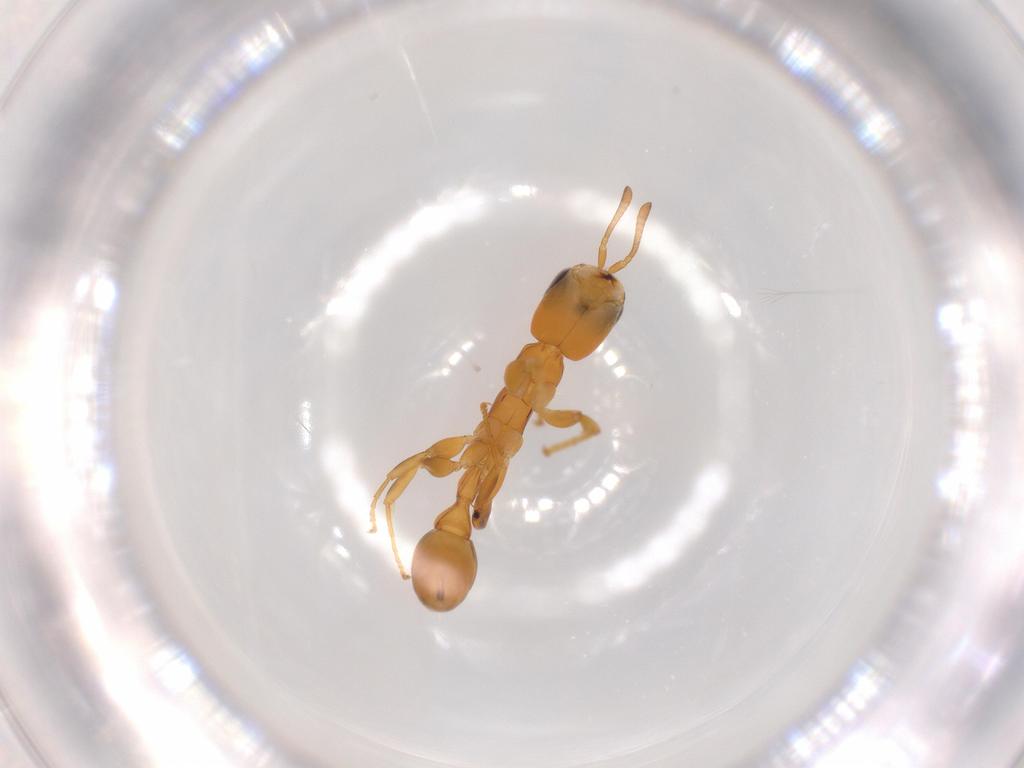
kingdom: Animalia
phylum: Arthropoda
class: Insecta
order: Hymenoptera
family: Formicidae
